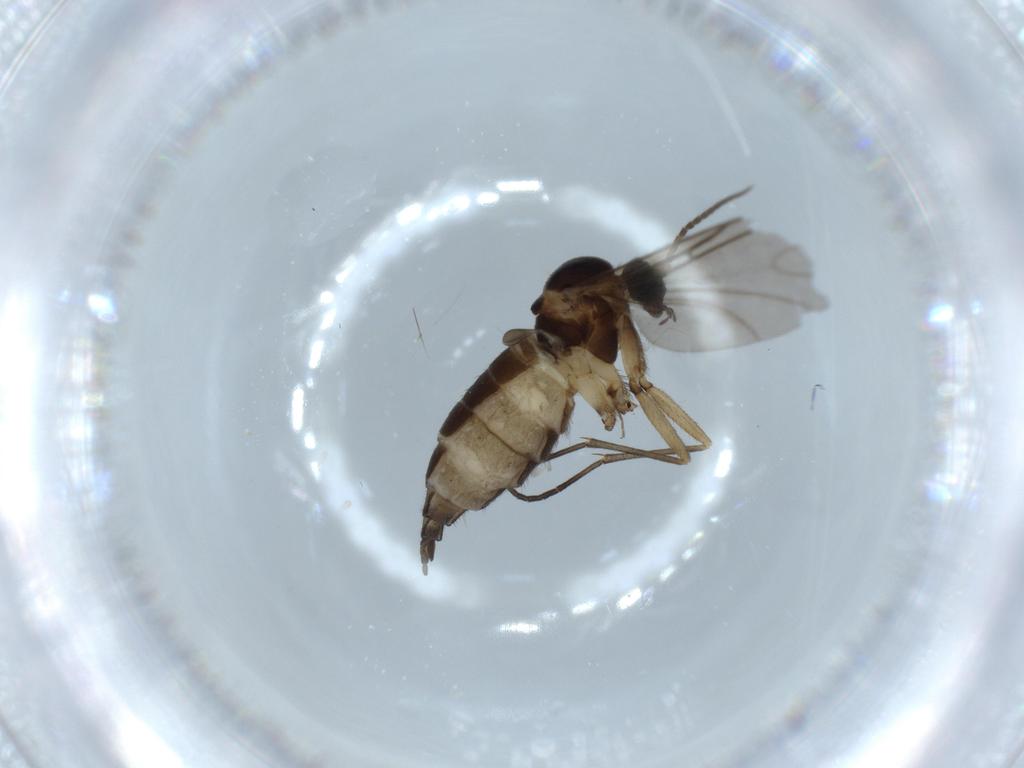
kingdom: Animalia
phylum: Arthropoda
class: Insecta
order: Diptera
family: Sciaridae
